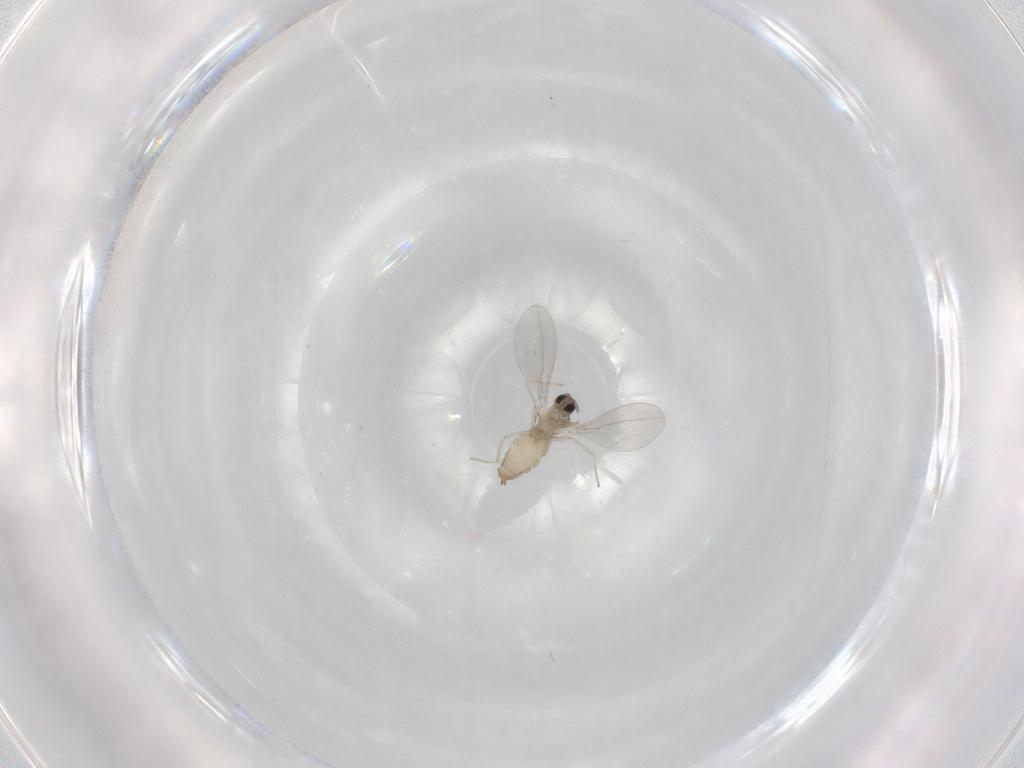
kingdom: Animalia
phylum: Arthropoda
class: Insecta
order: Diptera
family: Cecidomyiidae
